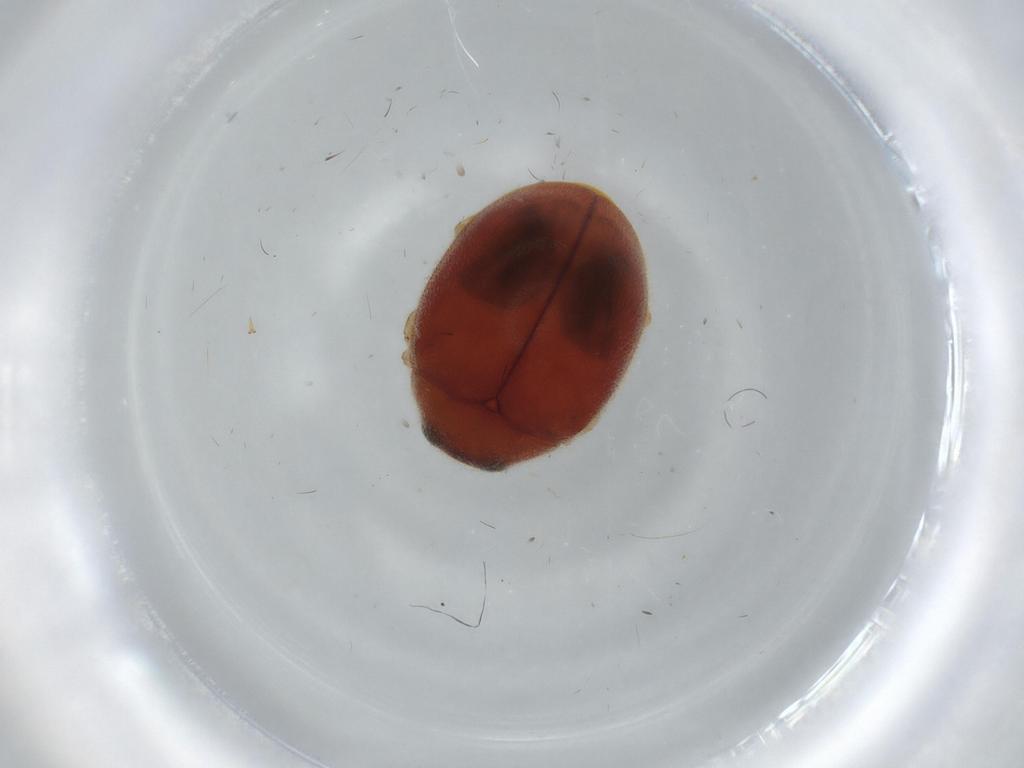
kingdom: Animalia
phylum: Arthropoda
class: Insecta
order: Coleoptera
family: Coccinellidae
